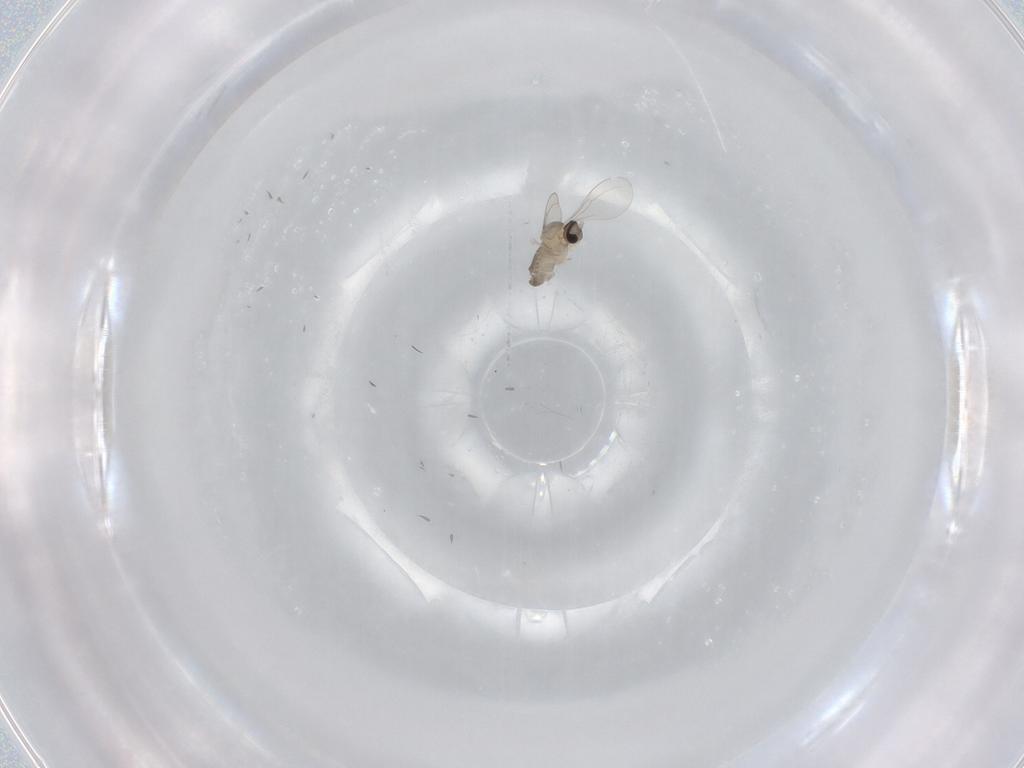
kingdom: Animalia
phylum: Arthropoda
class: Insecta
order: Diptera
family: Cecidomyiidae
